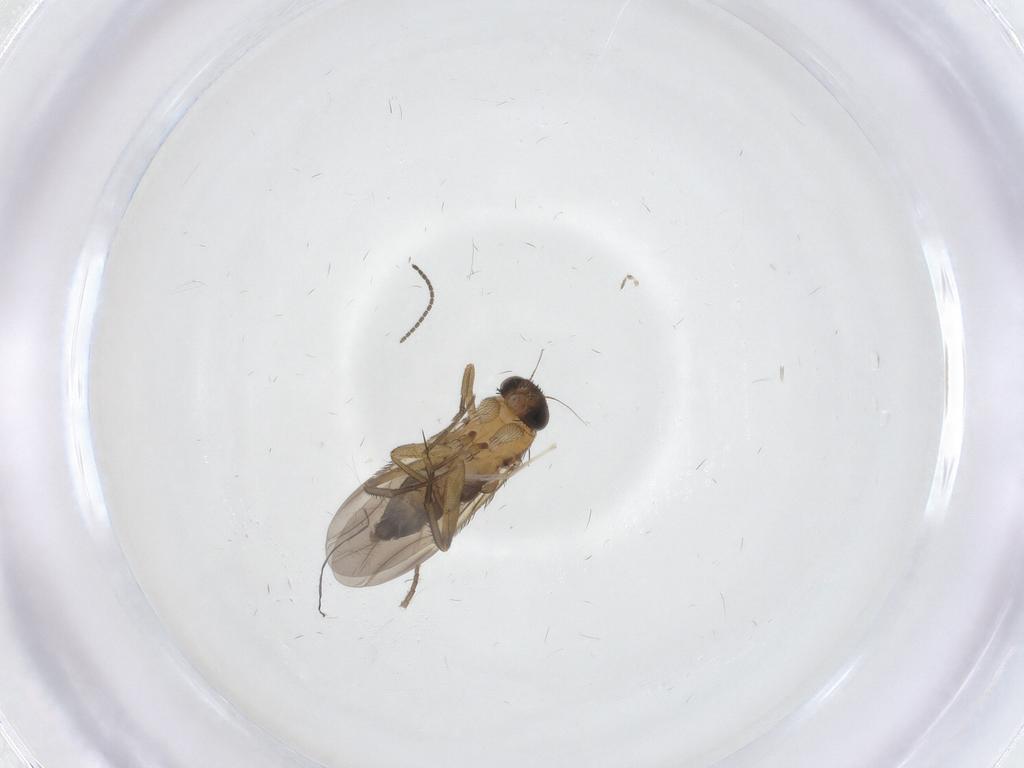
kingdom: Animalia
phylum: Arthropoda
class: Insecta
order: Diptera
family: Phoridae
